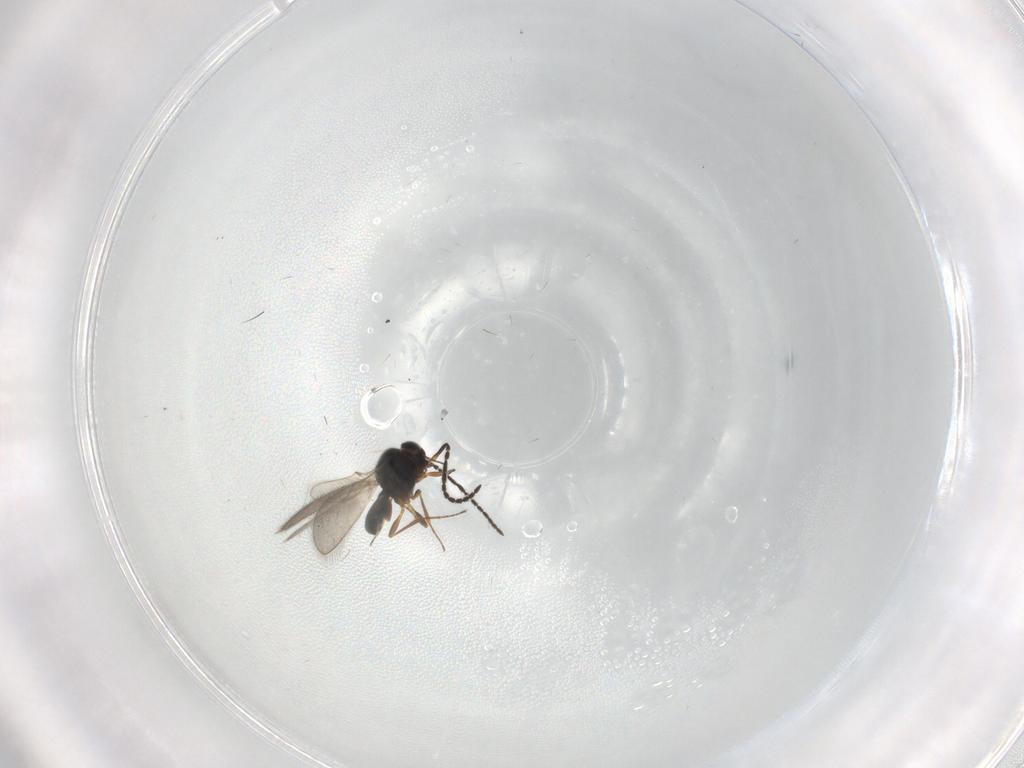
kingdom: Animalia
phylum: Arthropoda
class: Insecta
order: Hymenoptera
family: Scelionidae
